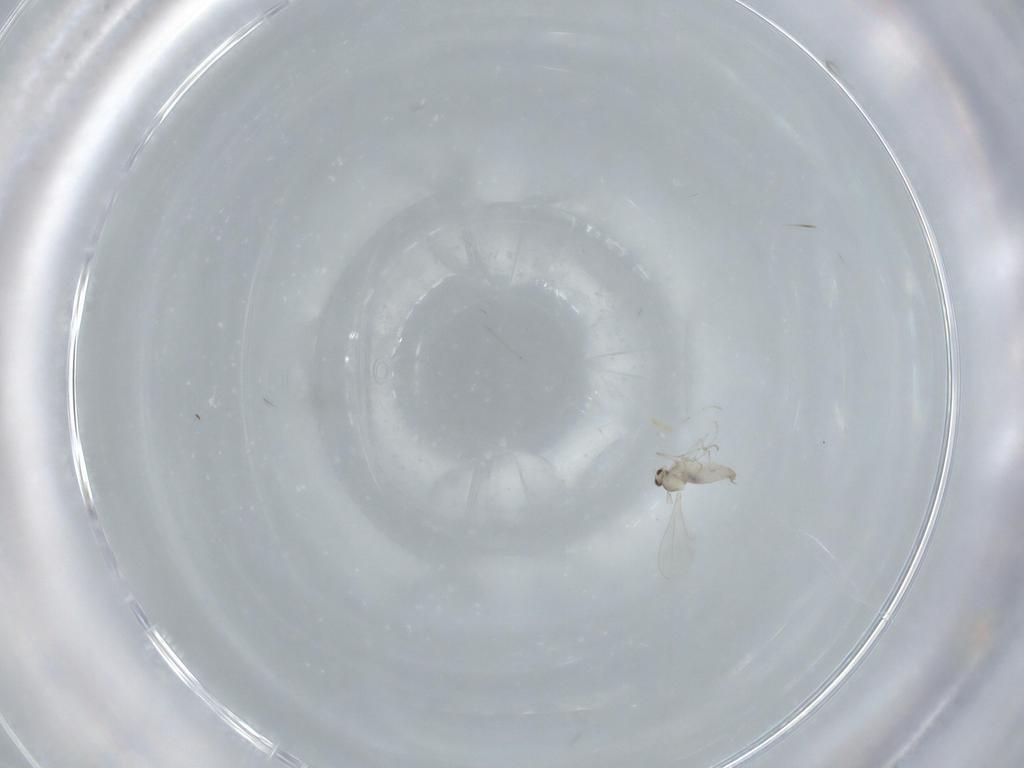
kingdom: Animalia
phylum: Arthropoda
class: Insecta
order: Diptera
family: Cecidomyiidae
